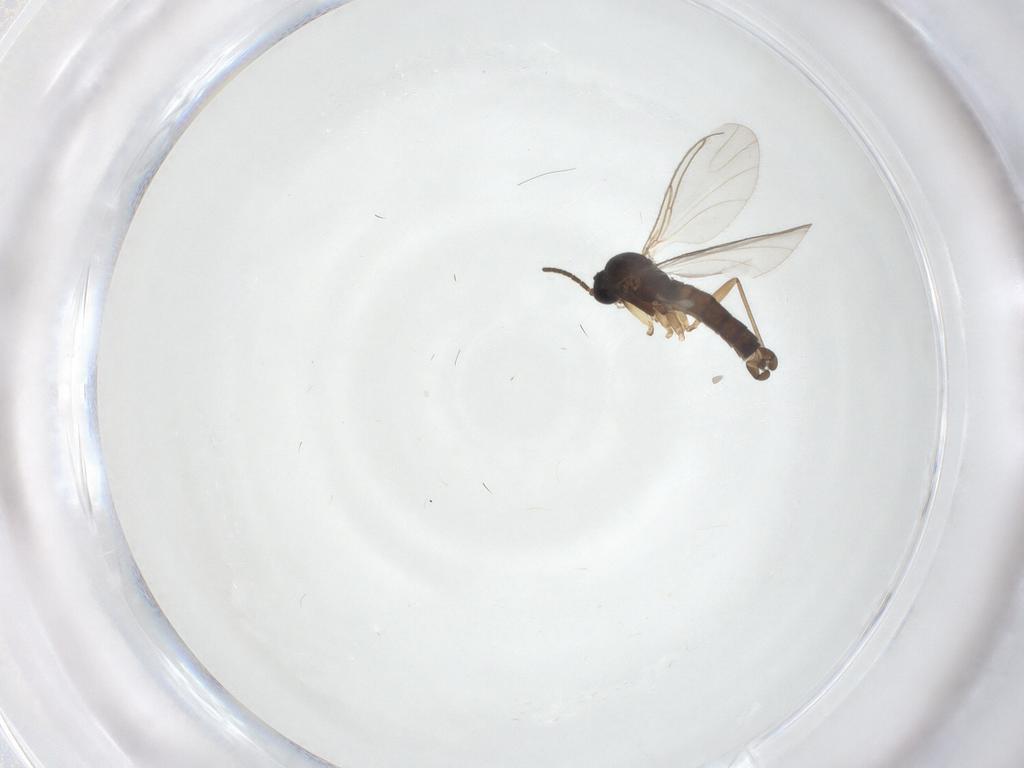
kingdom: Animalia
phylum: Arthropoda
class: Insecta
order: Diptera
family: Sciaridae
